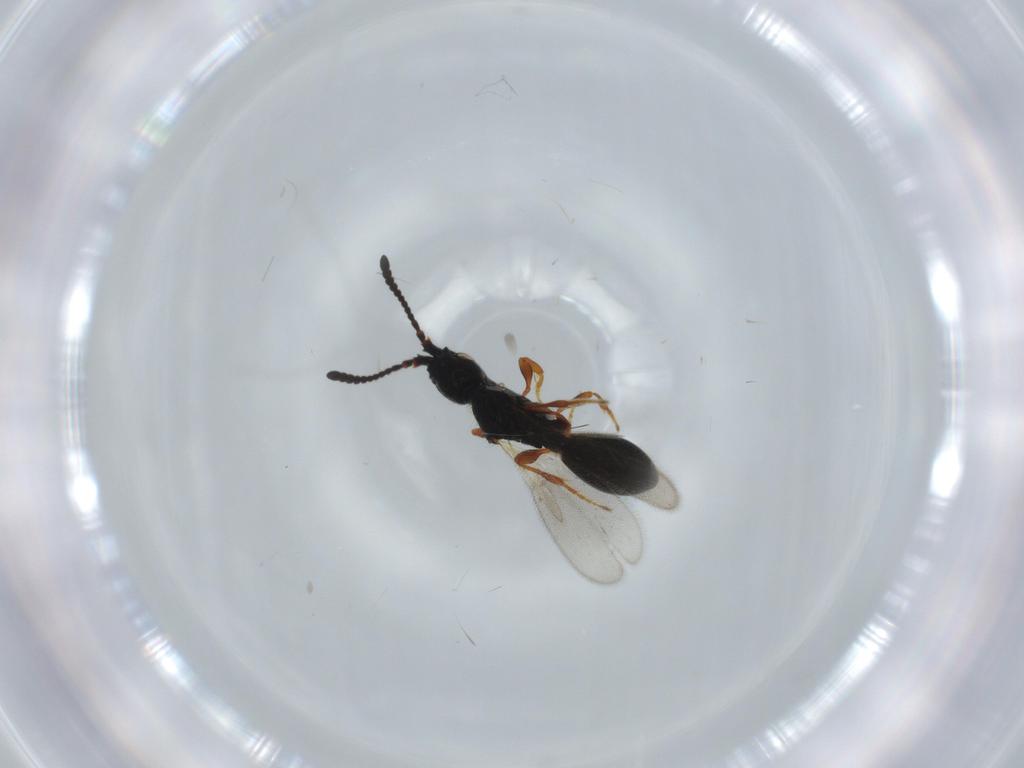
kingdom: Animalia
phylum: Arthropoda
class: Insecta
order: Hymenoptera
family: Diapriidae
